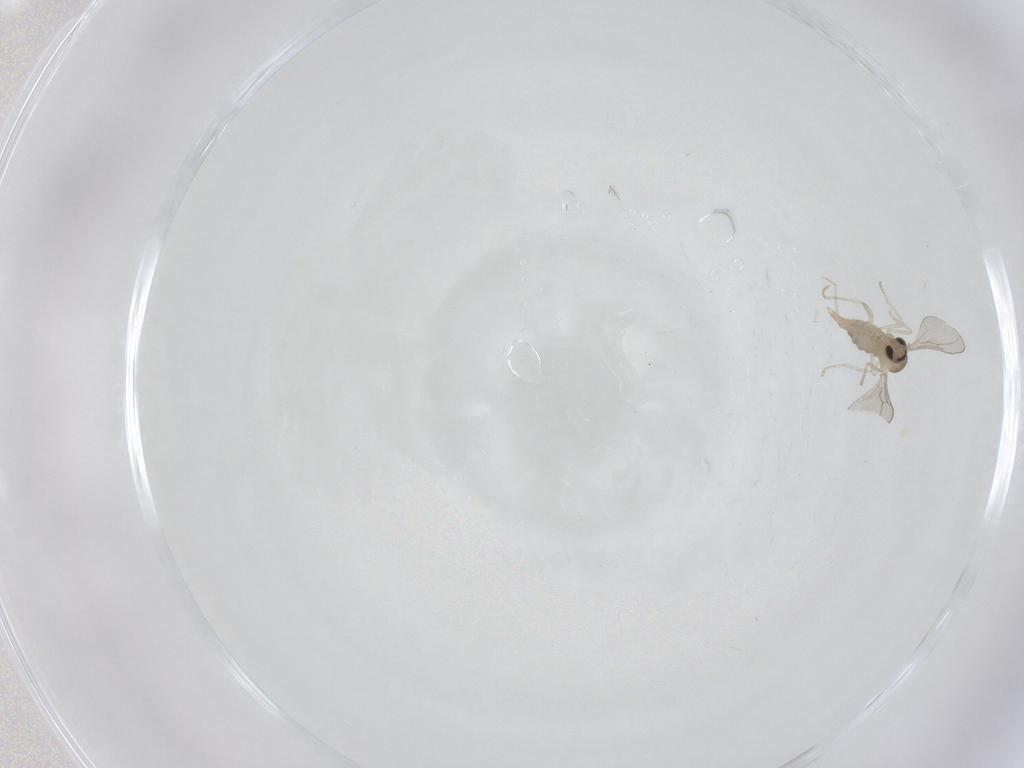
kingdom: Animalia
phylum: Arthropoda
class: Insecta
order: Diptera
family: Cecidomyiidae
